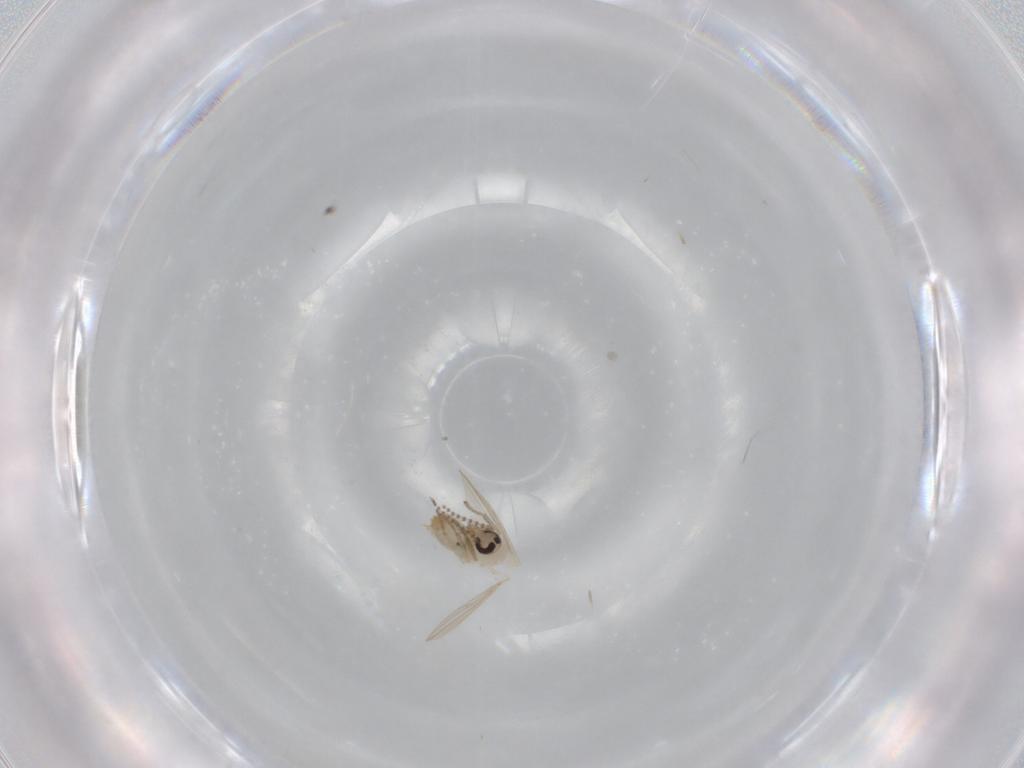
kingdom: Animalia
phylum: Arthropoda
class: Insecta
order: Diptera
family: Psychodidae
